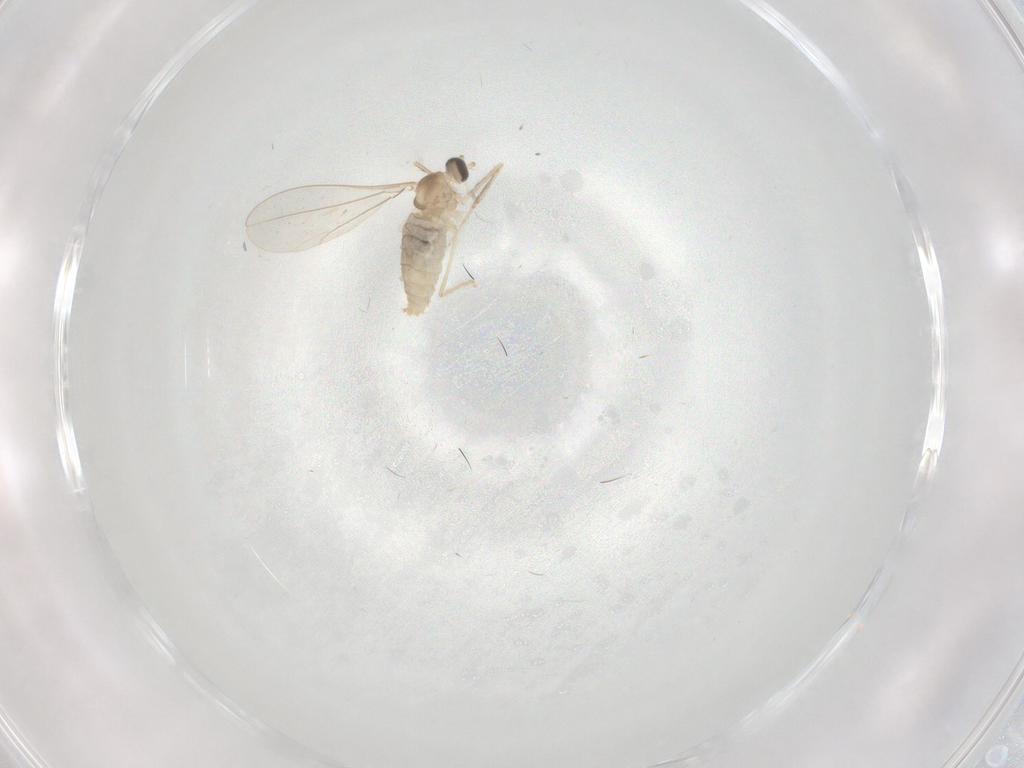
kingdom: Animalia
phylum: Arthropoda
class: Insecta
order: Diptera
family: Cecidomyiidae
